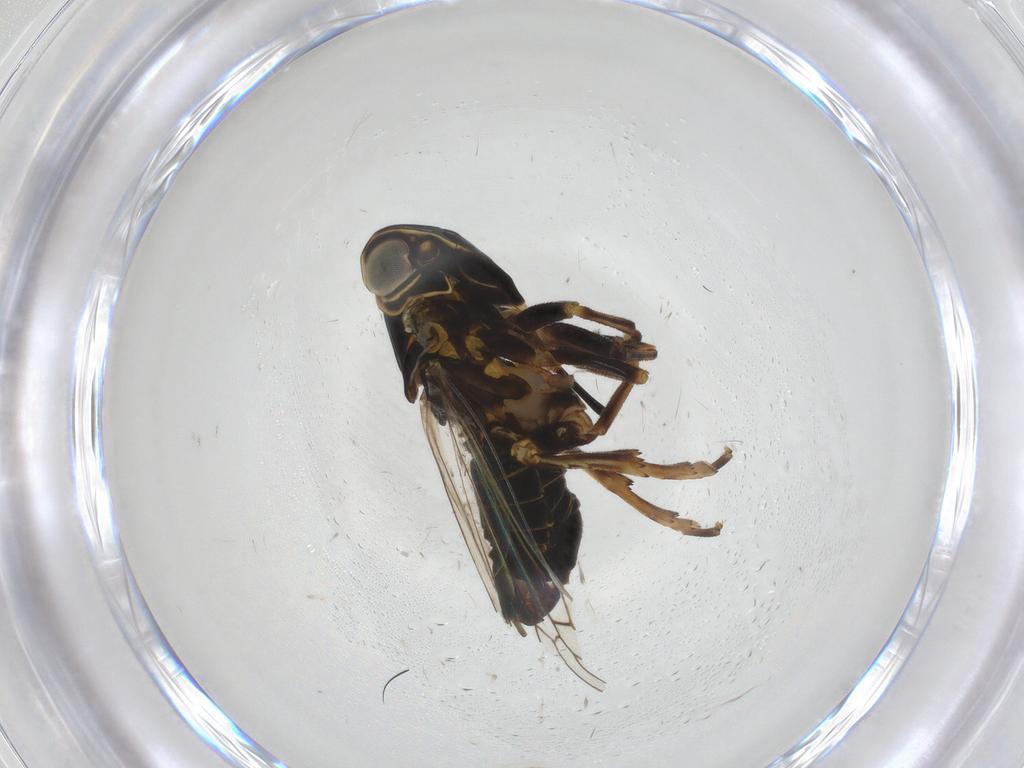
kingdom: Animalia
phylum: Arthropoda
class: Insecta
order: Hemiptera
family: Cixiidae
